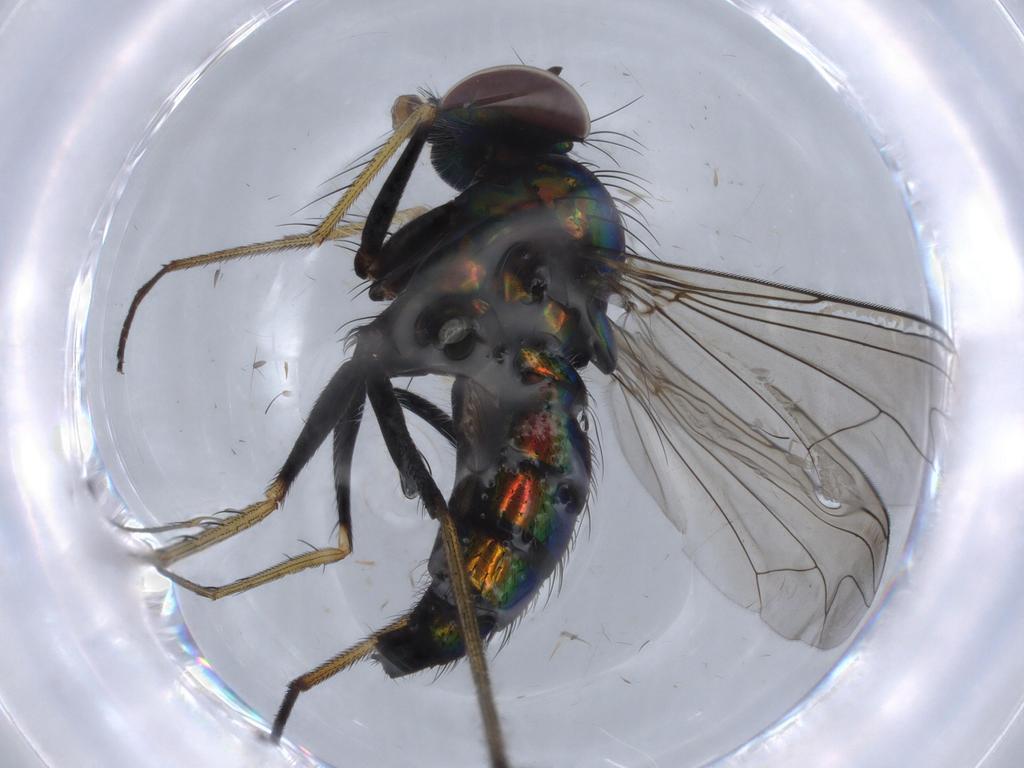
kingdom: Animalia
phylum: Arthropoda
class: Insecta
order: Diptera
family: Dolichopodidae
